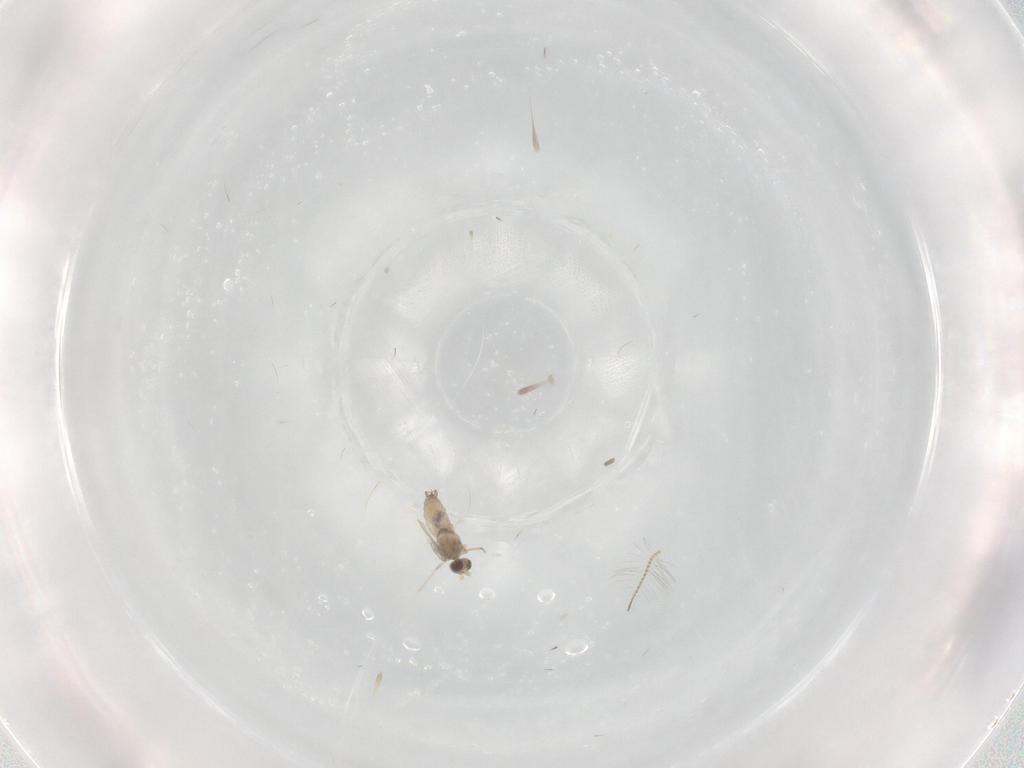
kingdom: Animalia
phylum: Arthropoda
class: Insecta
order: Diptera
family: Cecidomyiidae
